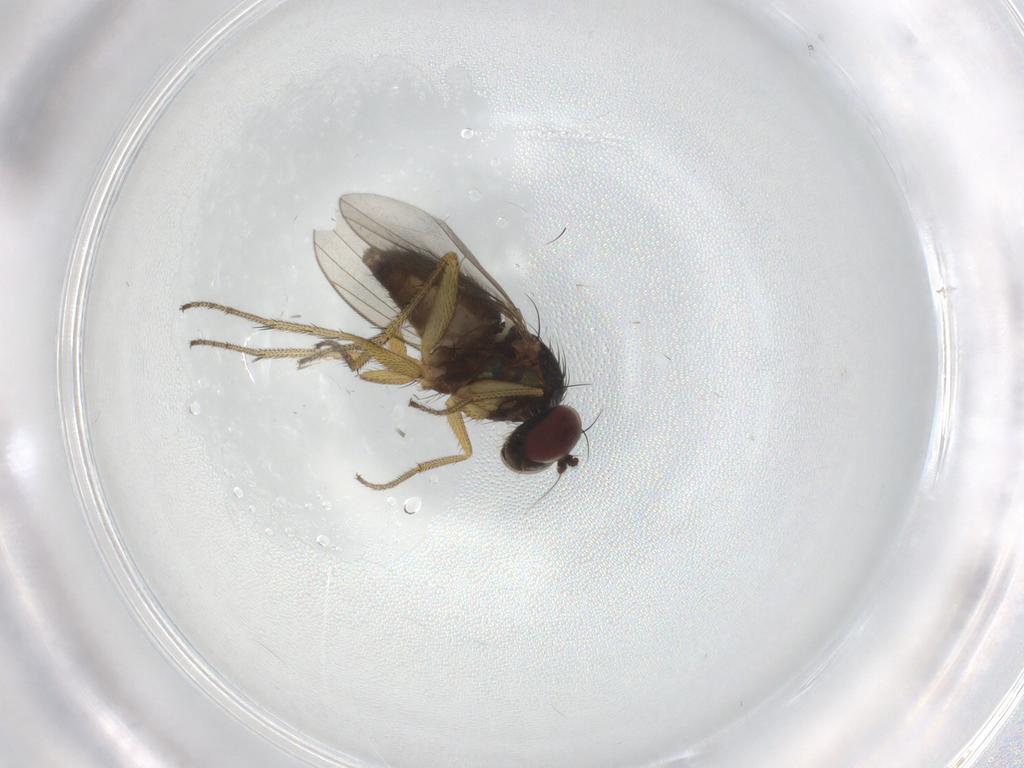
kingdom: Animalia
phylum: Arthropoda
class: Insecta
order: Diptera
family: Dolichopodidae
